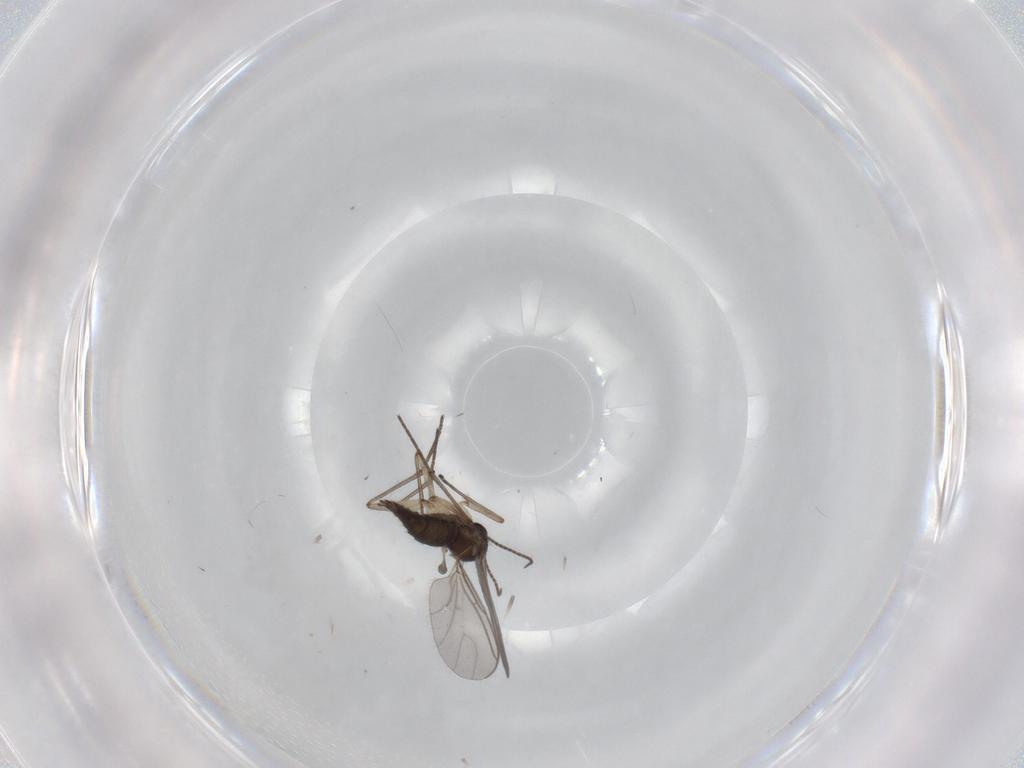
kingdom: Animalia
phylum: Arthropoda
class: Insecta
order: Diptera
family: Sciaridae
